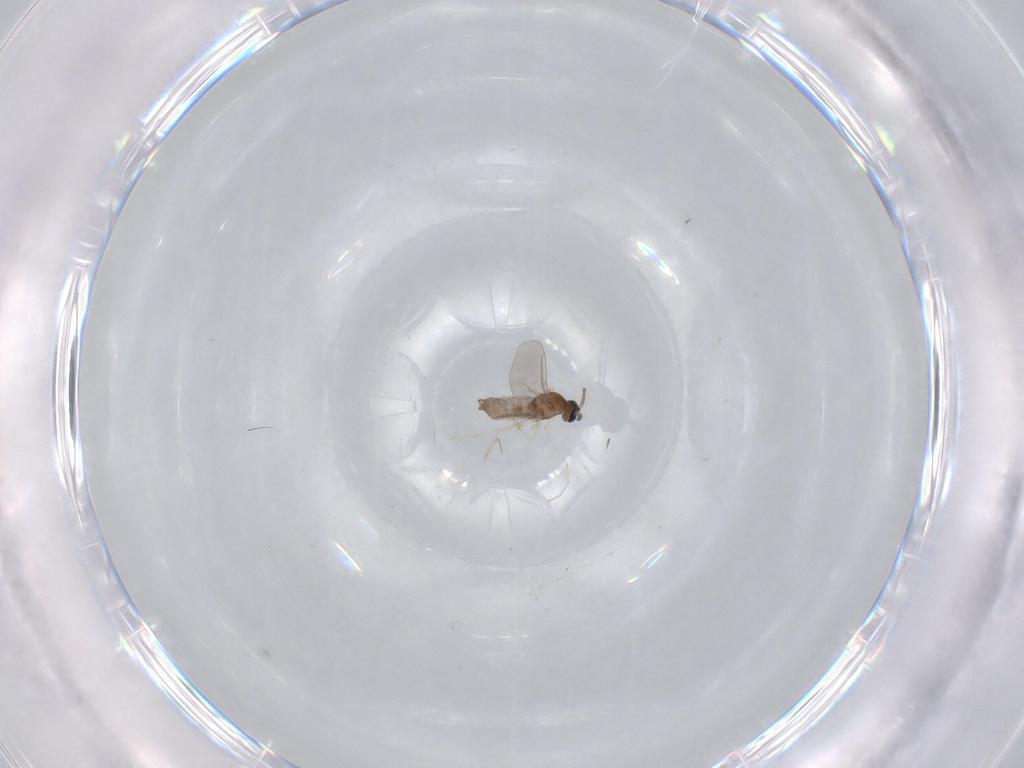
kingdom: Animalia
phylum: Arthropoda
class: Insecta
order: Diptera
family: Cecidomyiidae
